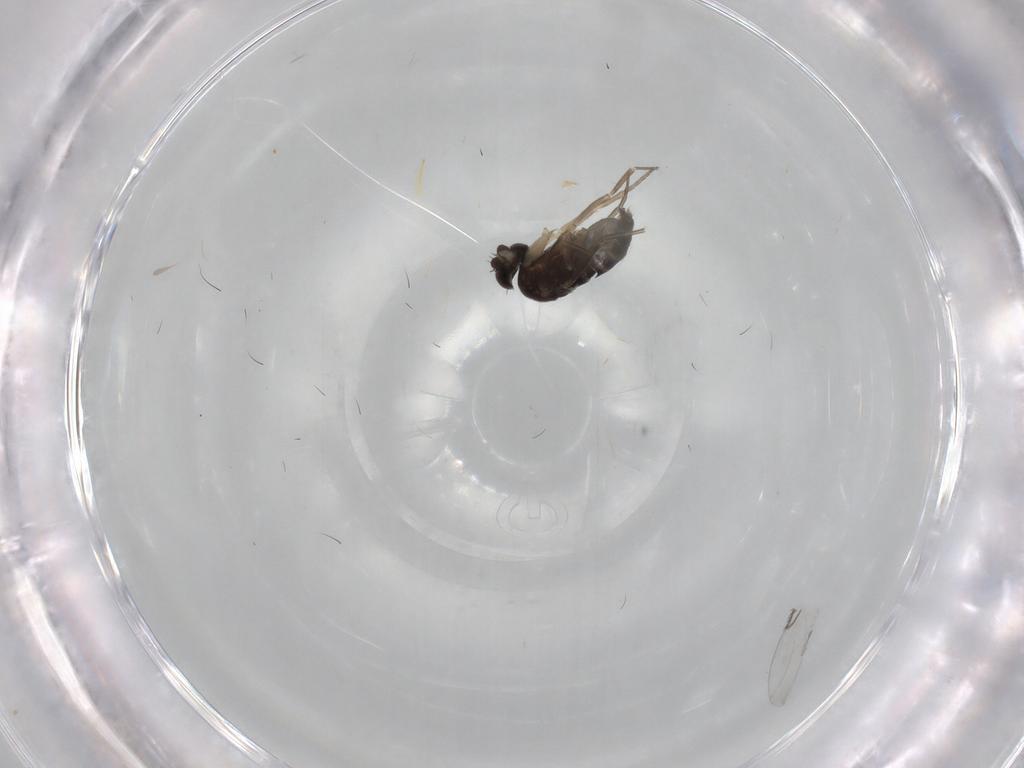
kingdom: Animalia
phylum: Arthropoda
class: Insecta
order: Diptera
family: Phoridae
